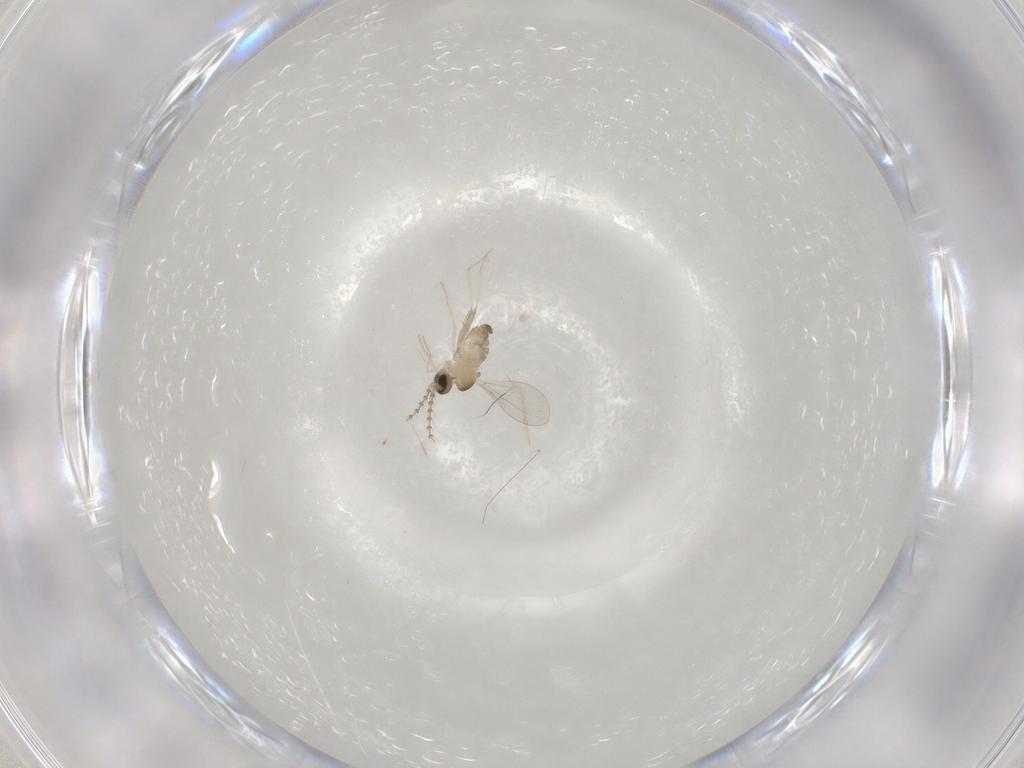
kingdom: Animalia
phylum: Arthropoda
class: Insecta
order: Diptera
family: Cecidomyiidae
